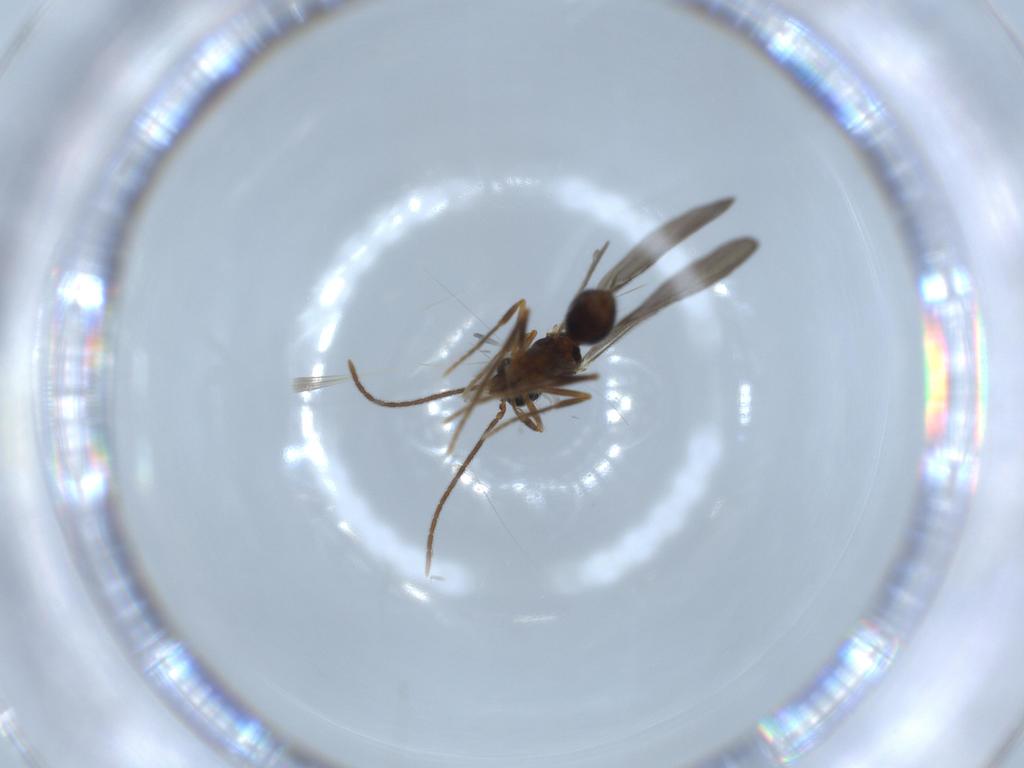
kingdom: Animalia
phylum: Arthropoda
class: Insecta
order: Hymenoptera
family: Formicidae
